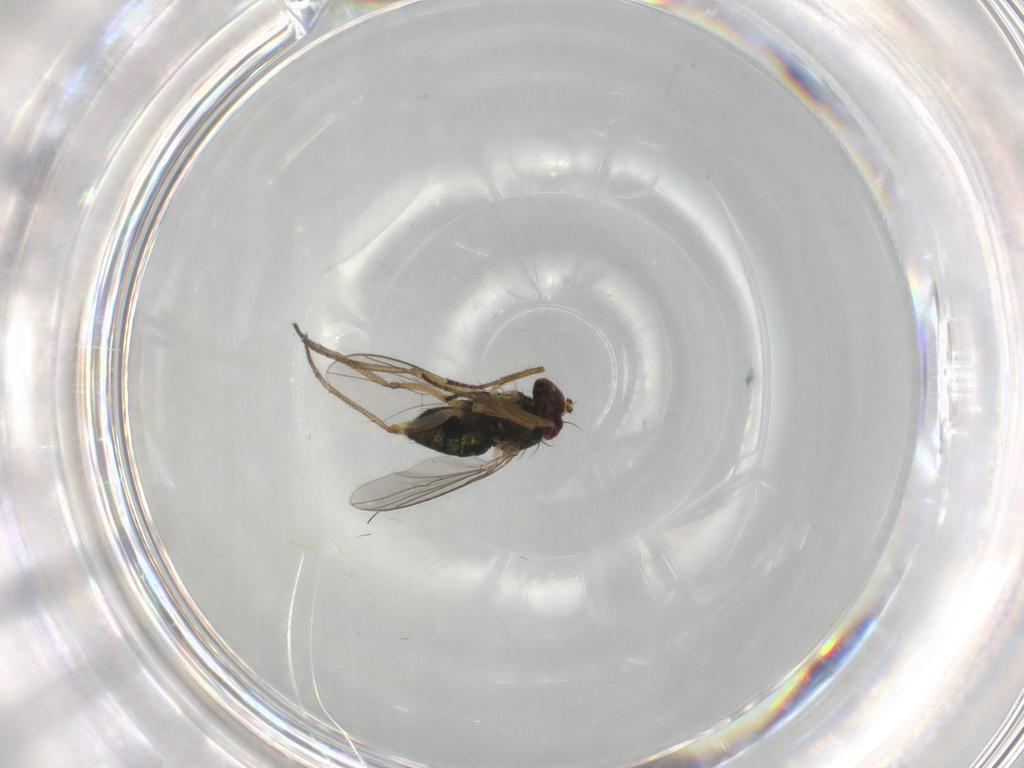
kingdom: Animalia
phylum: Arthropoda
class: Insecta
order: Diptera
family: Dolichopodidae
